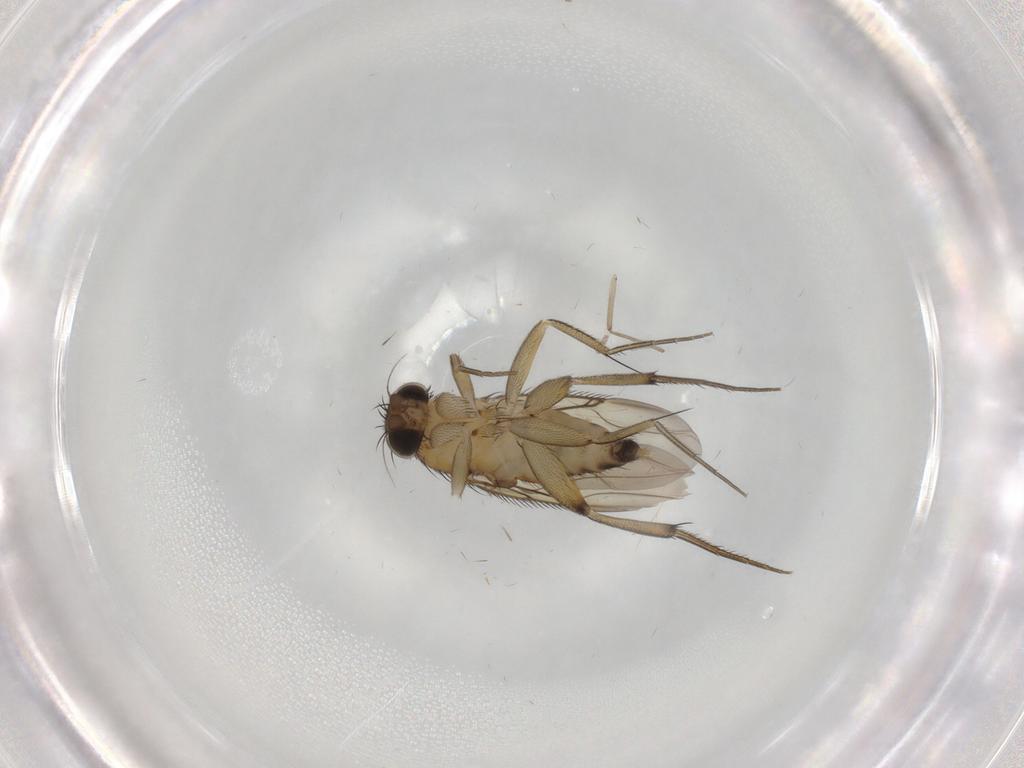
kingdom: Animalia
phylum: Arthropoda
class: Insecta
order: Diptera
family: Phoridae
